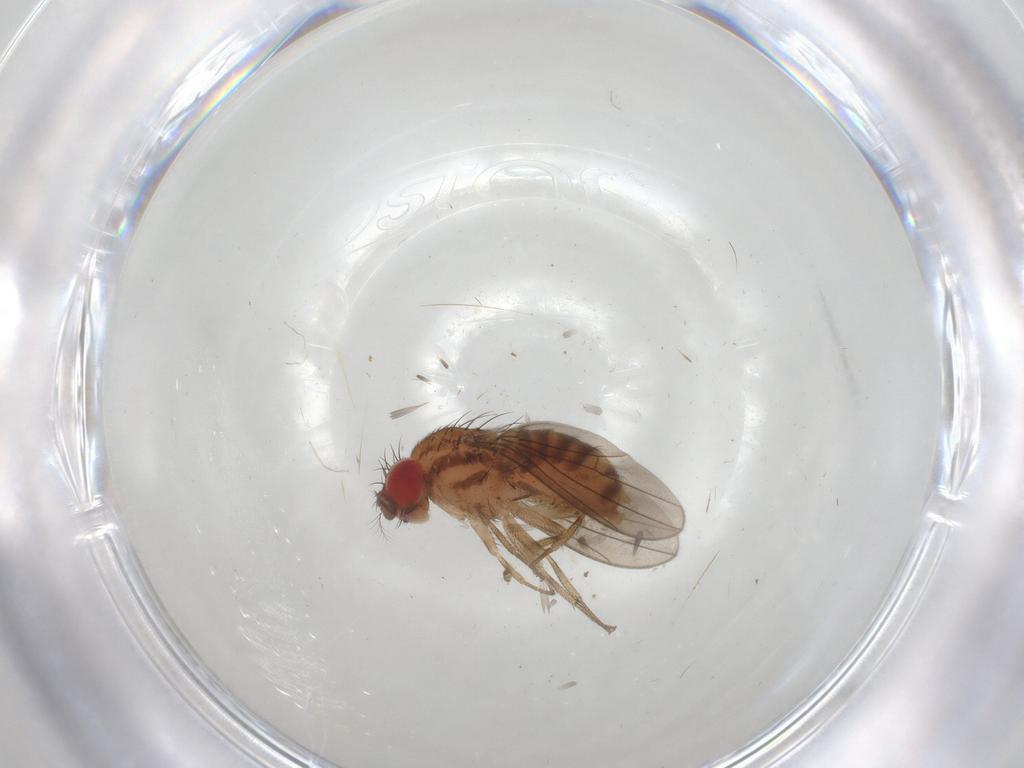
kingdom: Animalia
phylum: Arthropoda
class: Insecta
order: Diptera
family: Drosophilidae
